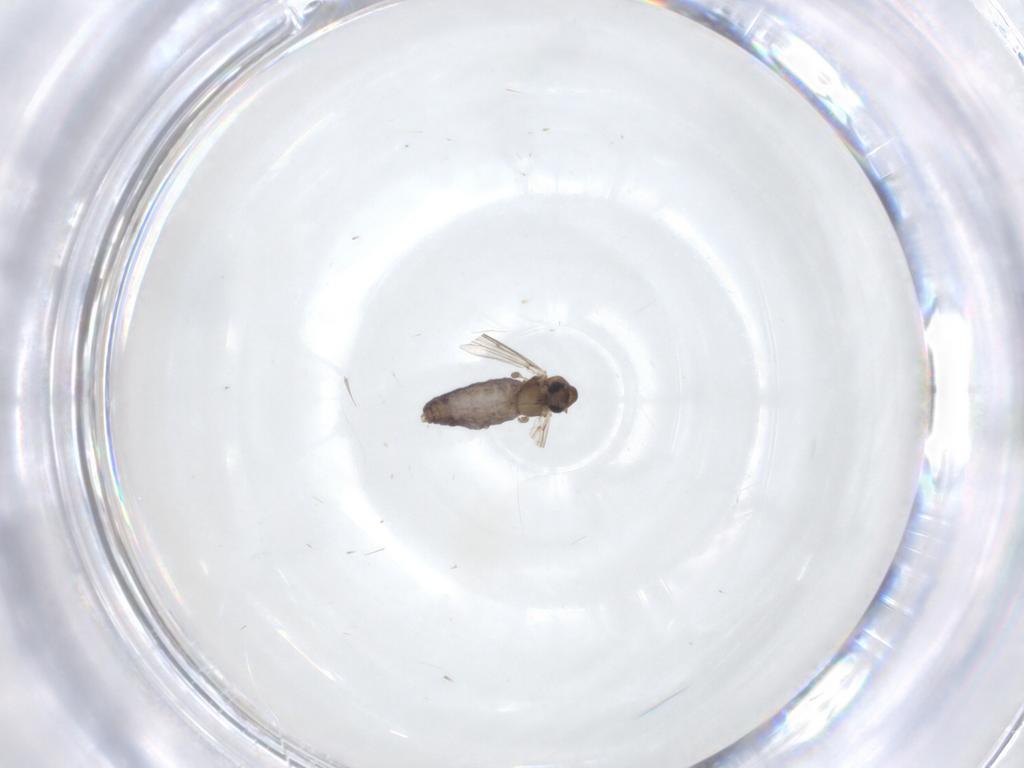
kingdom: Animalia
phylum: Arthropoda
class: Insecta
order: Diptera
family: Chironomidae
